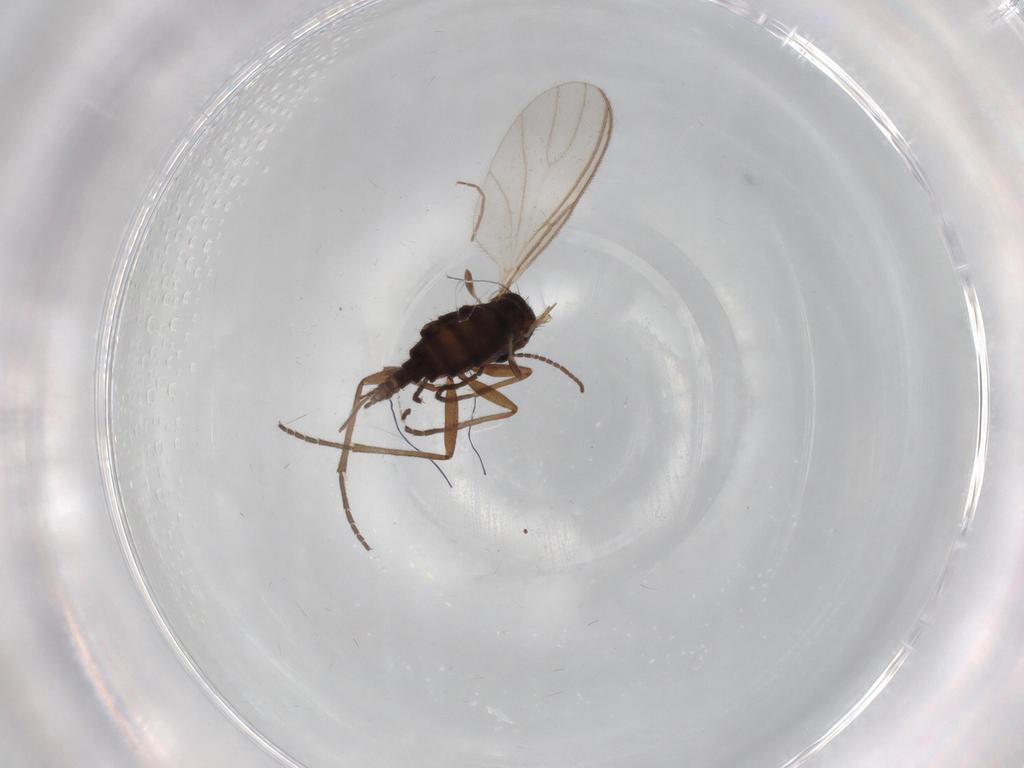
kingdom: Animalia
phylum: Arthropoda
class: Insecta
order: Diptera
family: Sciaridae
